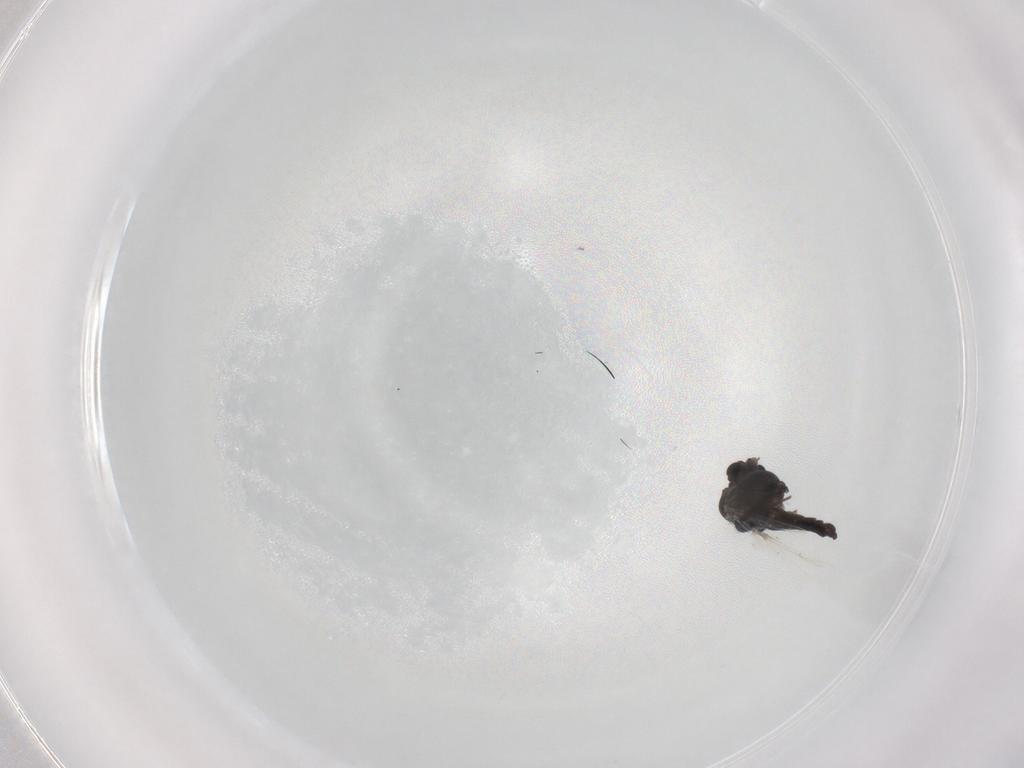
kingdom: Animalia
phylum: Arthropoda
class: Insecta
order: Diptera
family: Chironomidae
